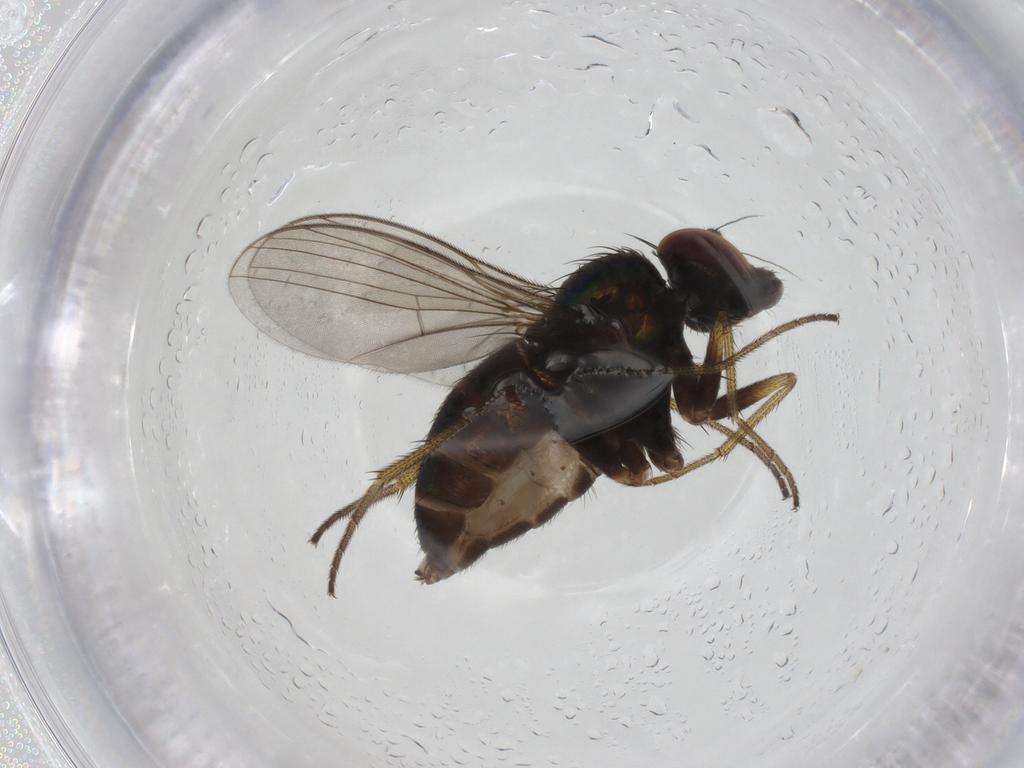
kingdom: Animalia
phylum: Arthropoda
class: Insecta
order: Diptera
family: Dolichopodidae
